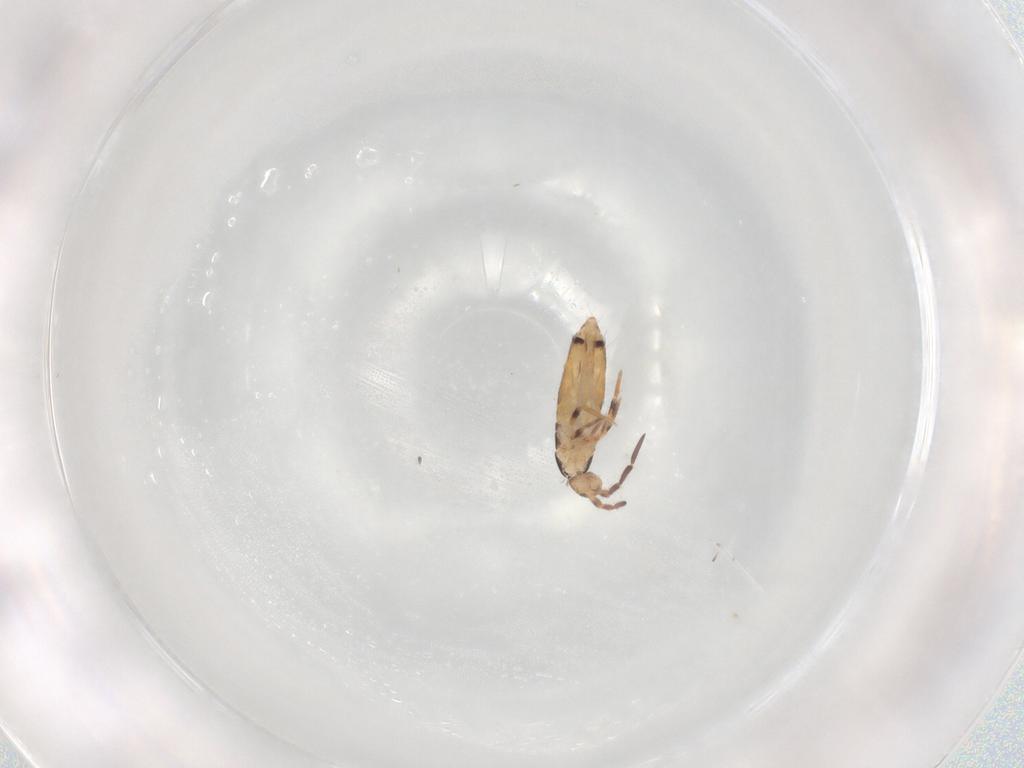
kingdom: Animalia
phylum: Arthropoda
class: Collembola
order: Entomobryomorpha
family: Entomobryidae
